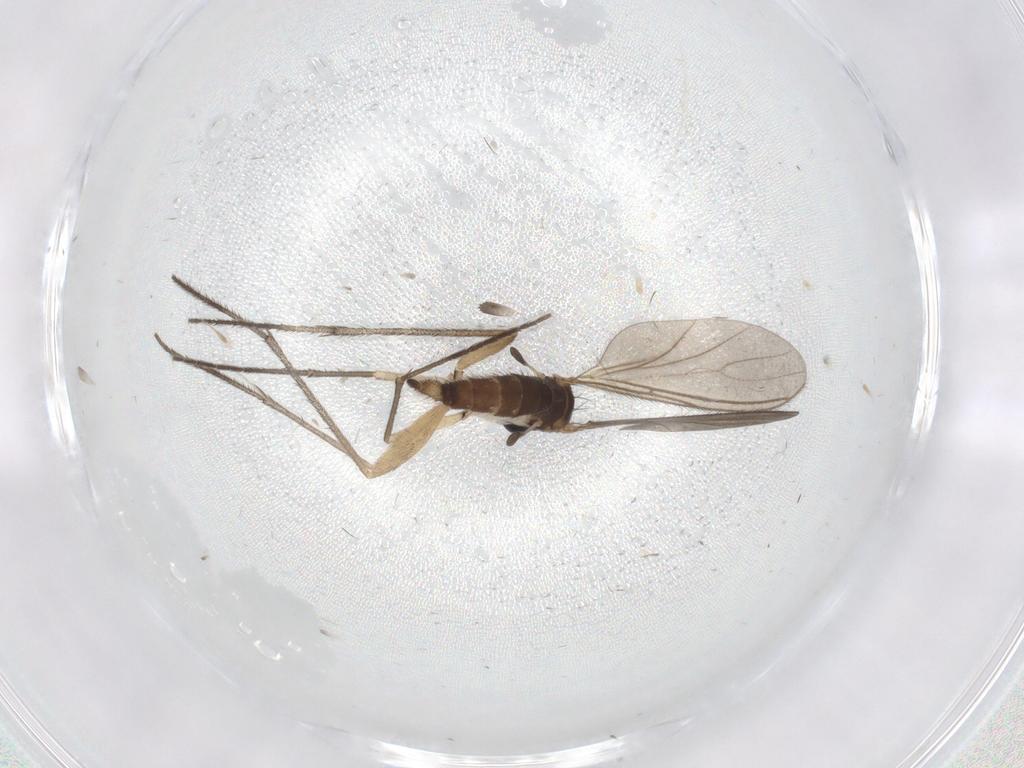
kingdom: Animalia
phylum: Arthropoda
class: Insecta
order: Diptera
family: Sciaridae
